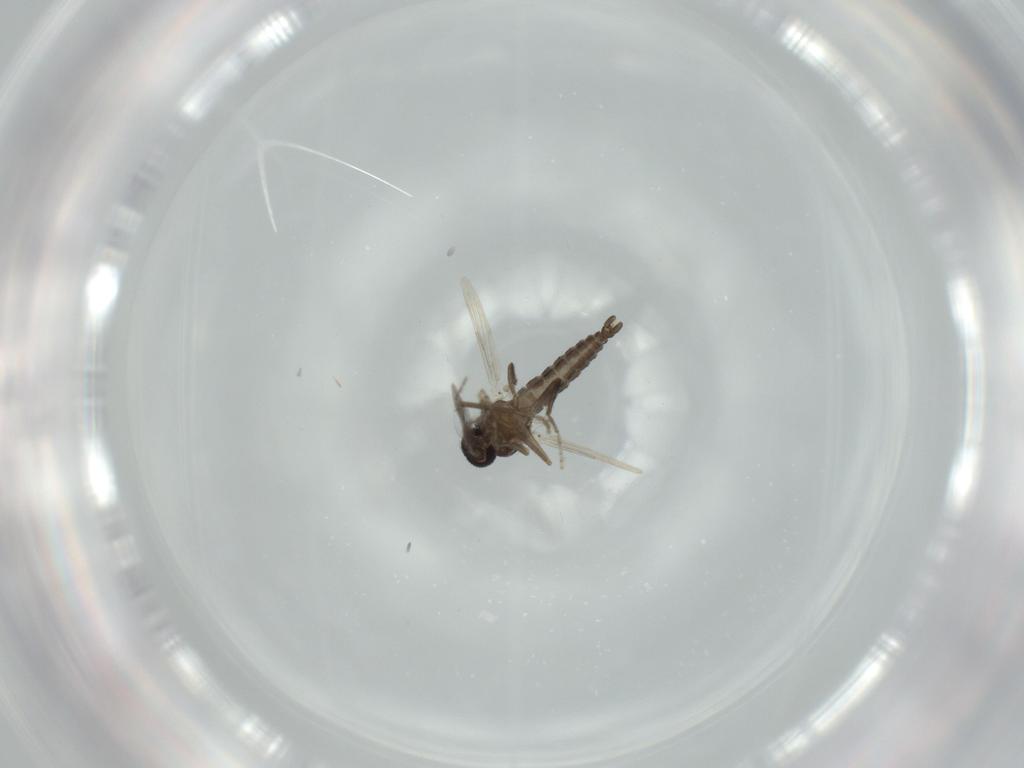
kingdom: Animalia
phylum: Arthropoda
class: Insecta
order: Diptera
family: Ceratopogonidae
